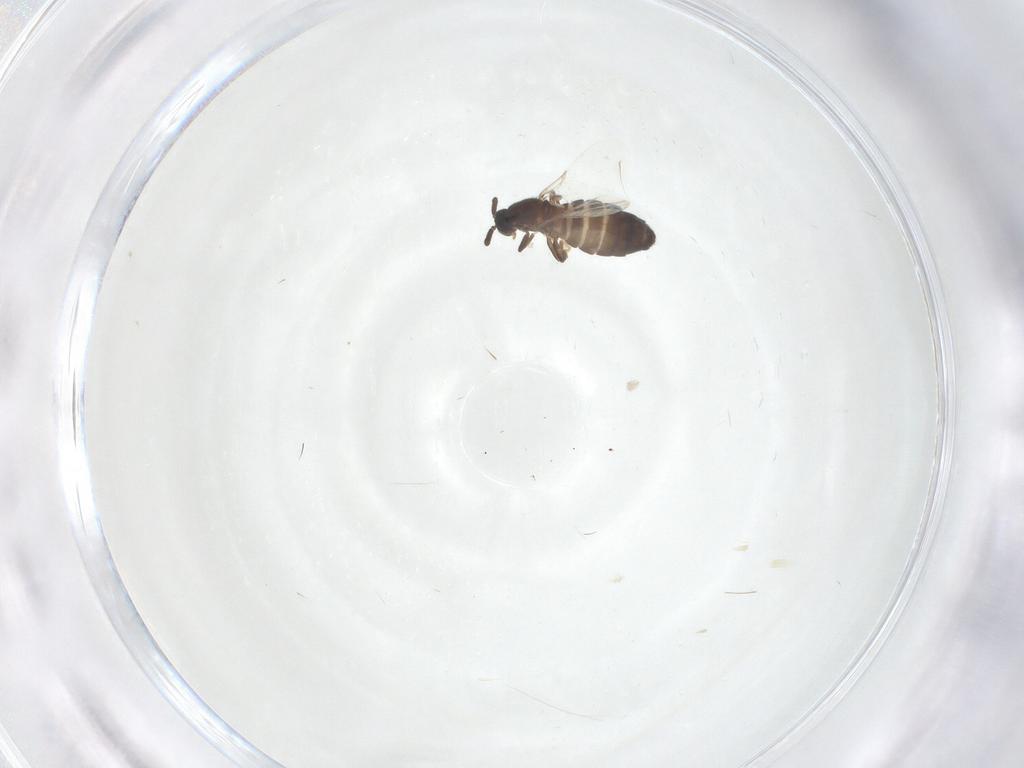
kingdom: Animalia
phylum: Arthropoda
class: Insecta
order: Diptera
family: Scatopsidae
